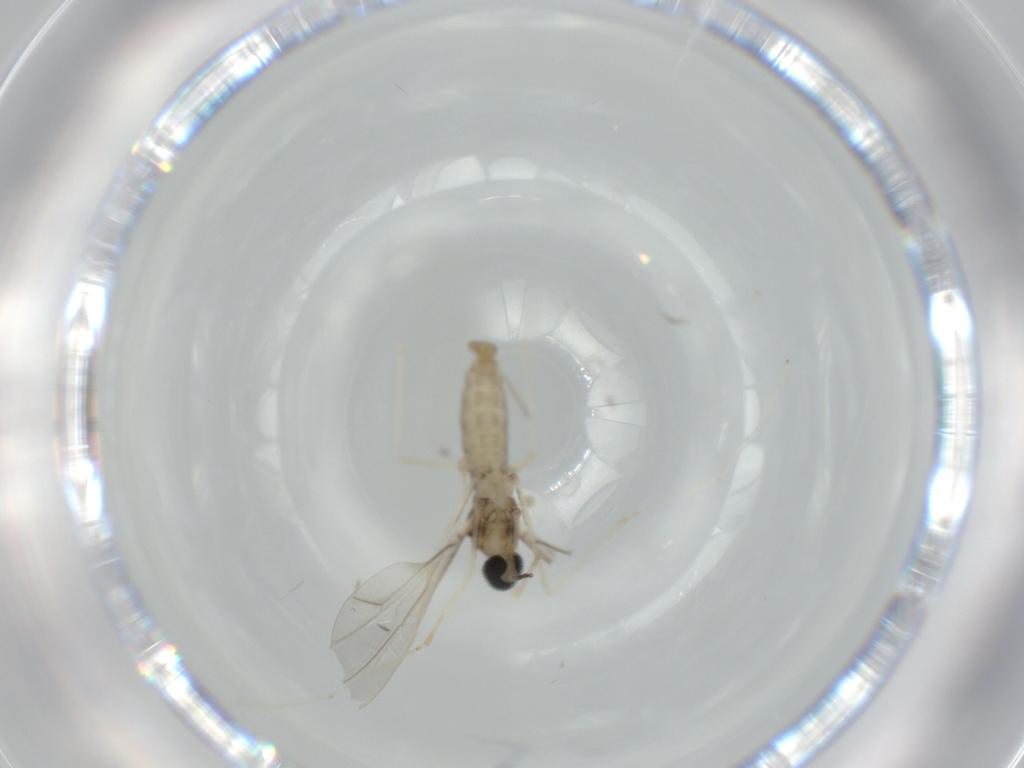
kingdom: Animalia
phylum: Arthropoda
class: Insecta
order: Diptera
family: Cecidomyiidae
